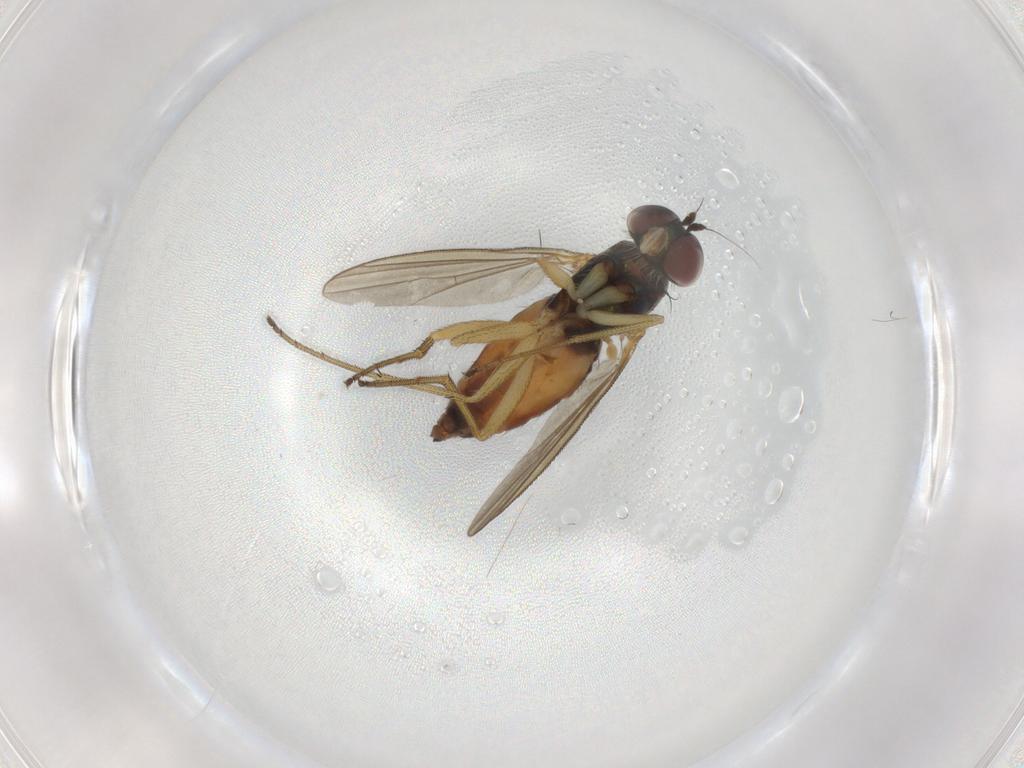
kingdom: Animalia
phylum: Arthropoda
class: Insecta
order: Diptera
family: Dolichopodidae
